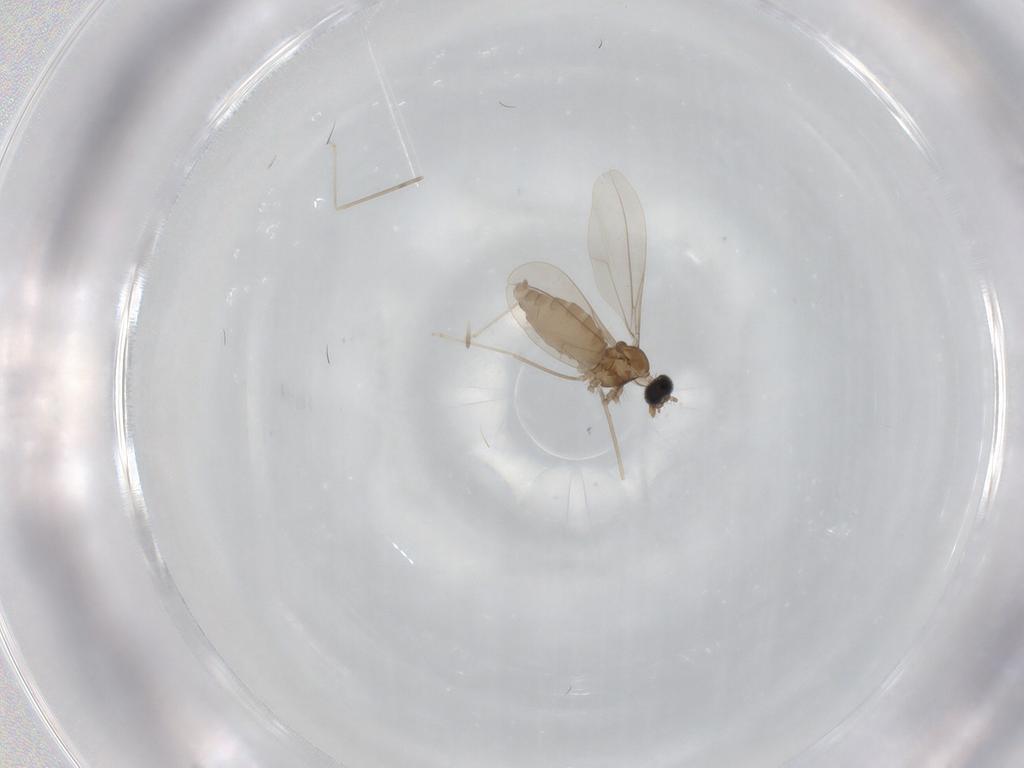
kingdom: Animalia
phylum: Arthropoda
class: Insecta
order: Diptera
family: Cecidomyiidae
